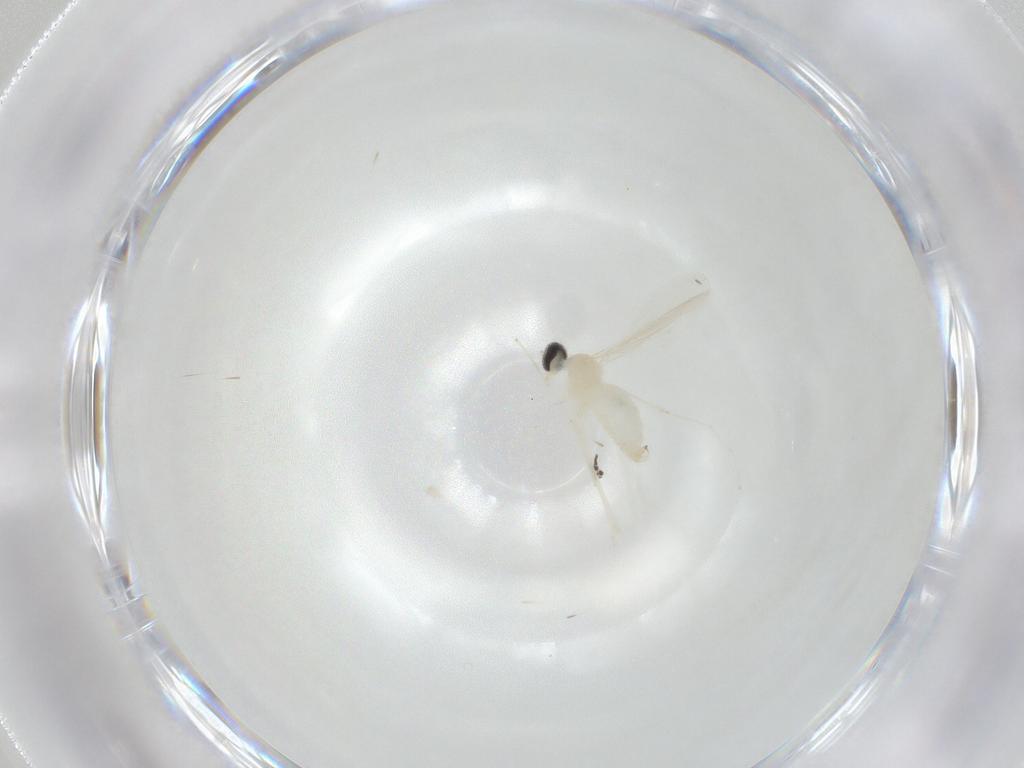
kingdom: Animalia
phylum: Arthropoda
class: Insecta
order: Diptera
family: Cecidomyiidae
